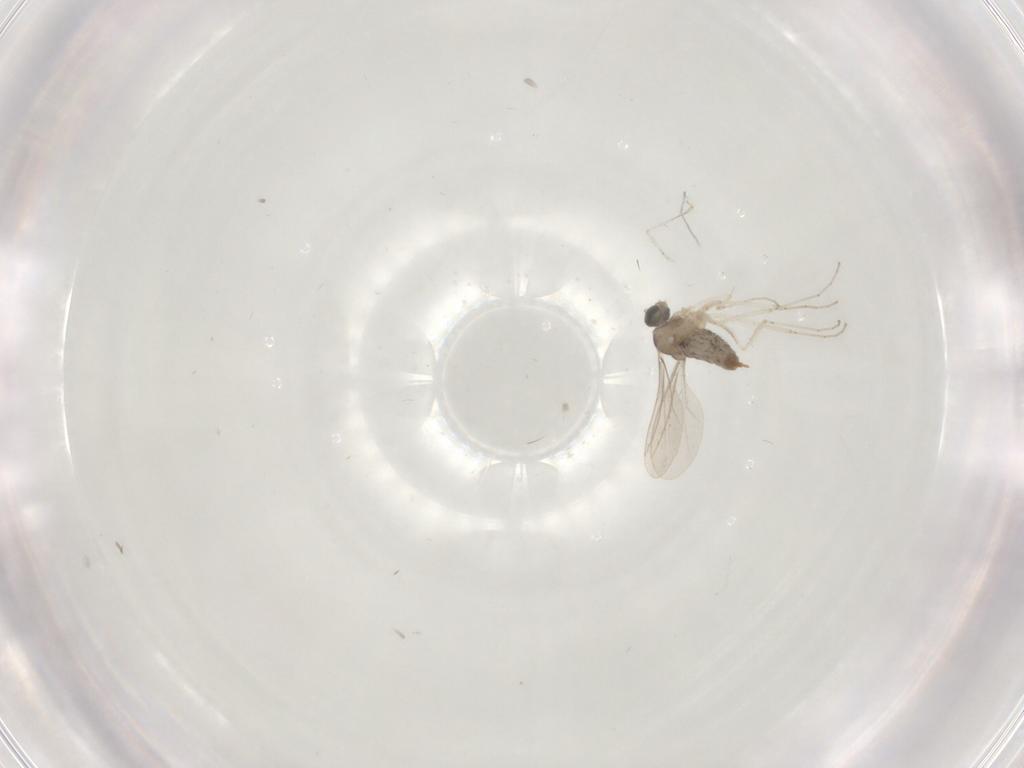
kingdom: Animalia
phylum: Arthropoda
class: Insecta
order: Diptera
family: Cecidomyiidae
